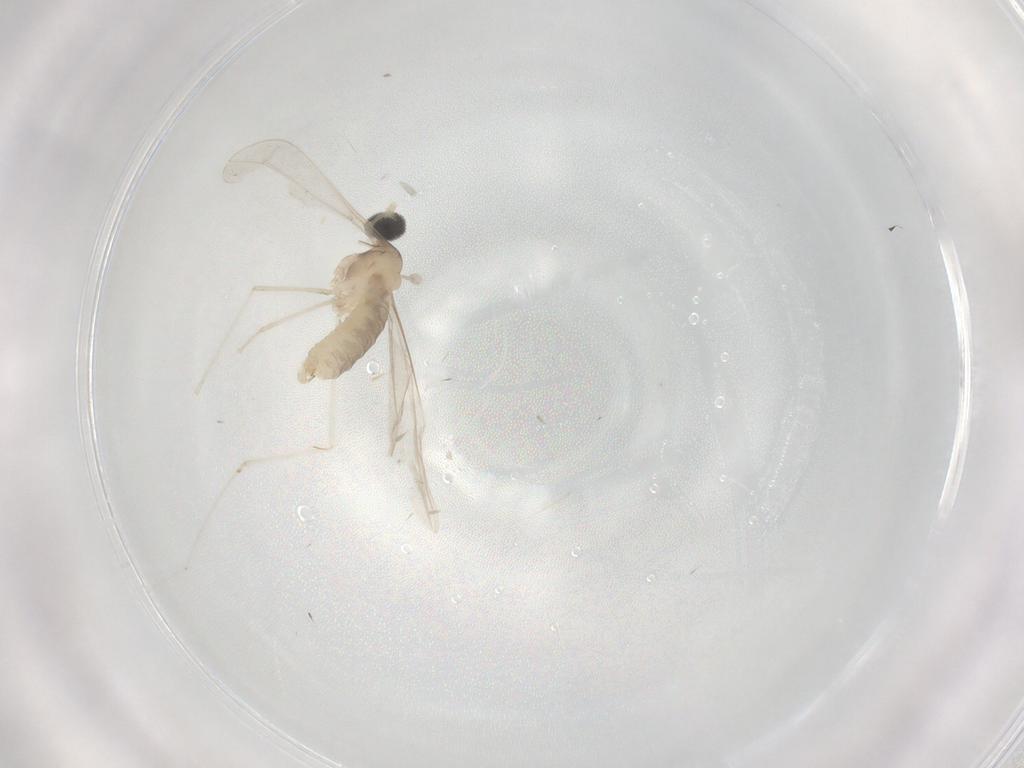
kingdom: Animalia
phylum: Arthropoda
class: Insecta
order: Diptera
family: Cecidomyiidae
